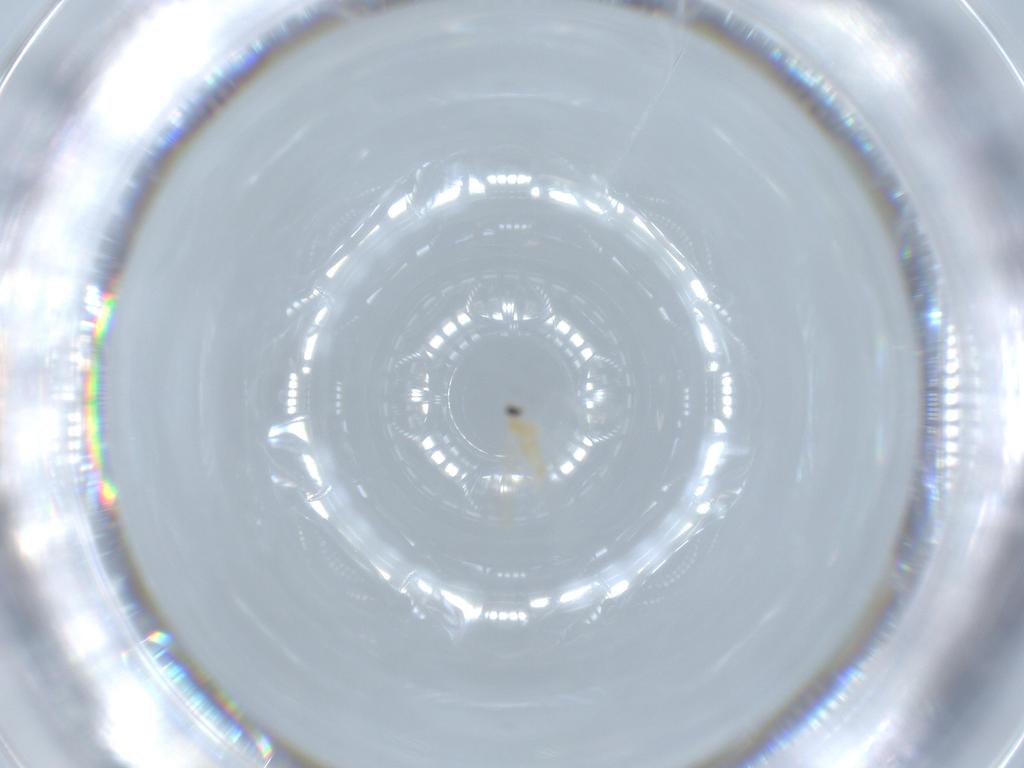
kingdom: Animalia
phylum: Arthropoda
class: Insecta
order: Diptera
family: Cecidomyiidae
